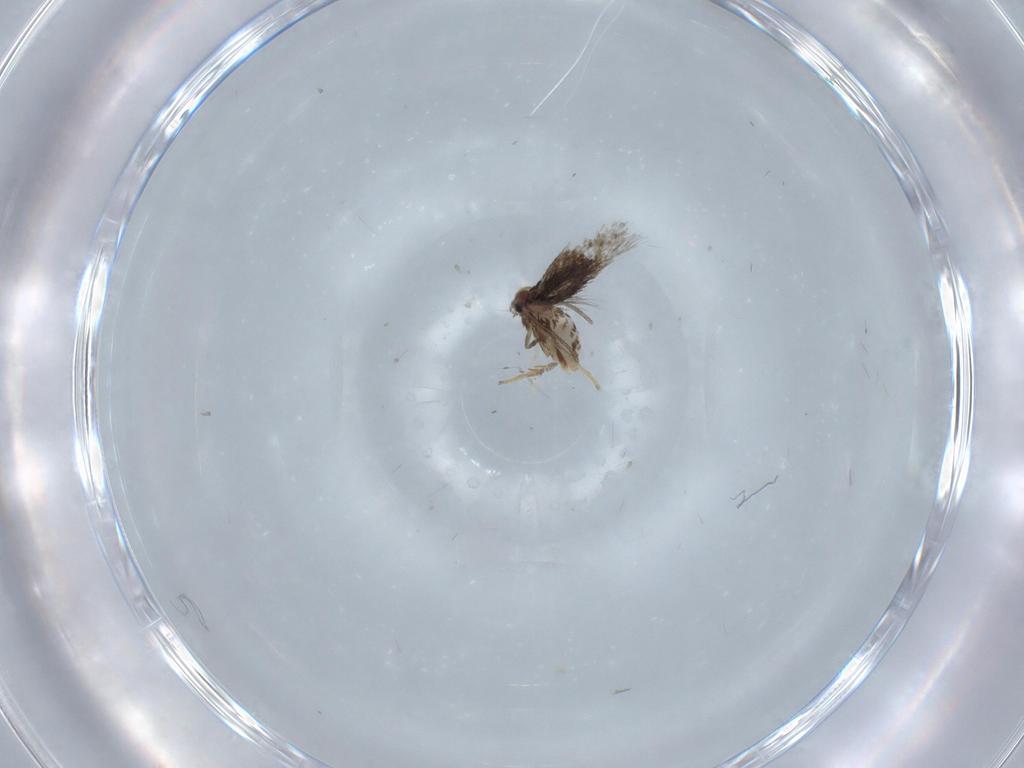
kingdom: Animalia
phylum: Arthropoda
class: Insecta
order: Lepidoptera
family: Nepticulidae
